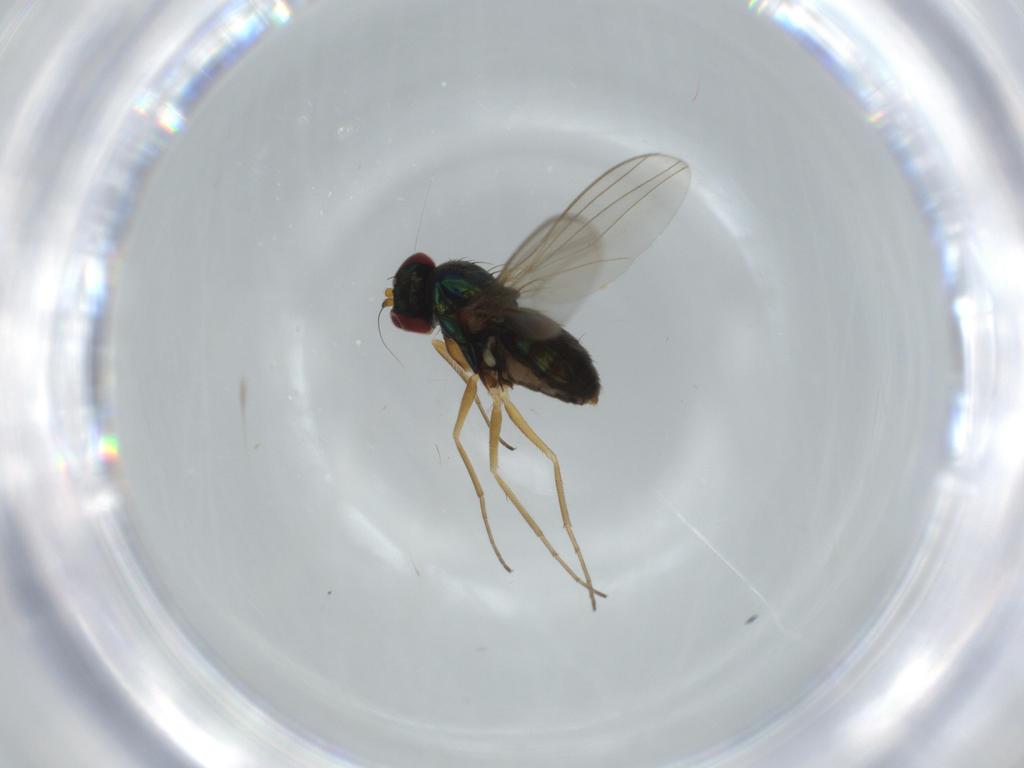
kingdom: Animalia
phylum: Arthropoda
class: Insecta
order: Diptera
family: Dolichopodidae
